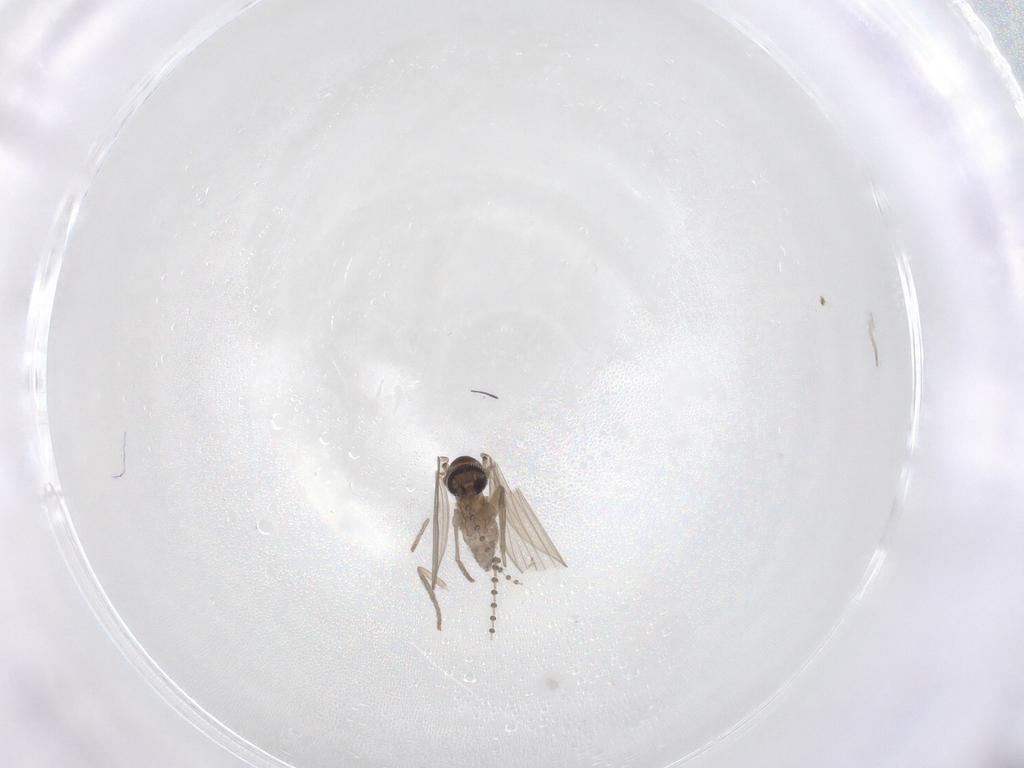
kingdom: Animalia
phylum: Arthropoda
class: Insecta
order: Diptera
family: Psychodidae
